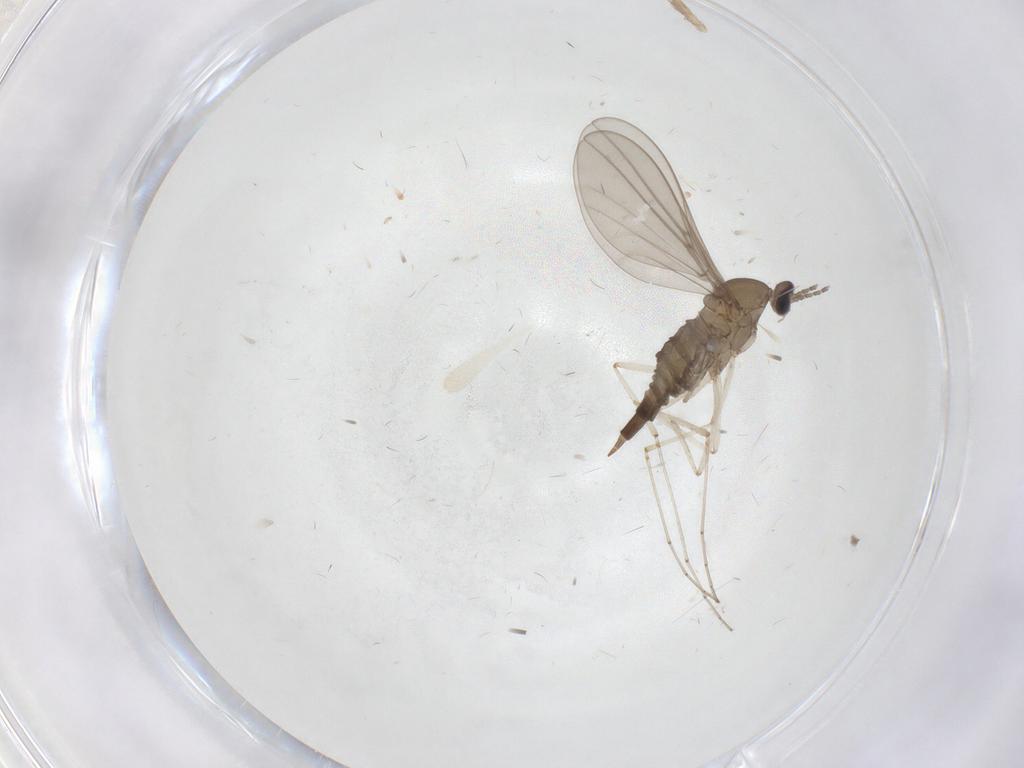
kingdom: Animalia
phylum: Arthropoda
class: Insecta
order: Diptera
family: Cecidomyiidae
